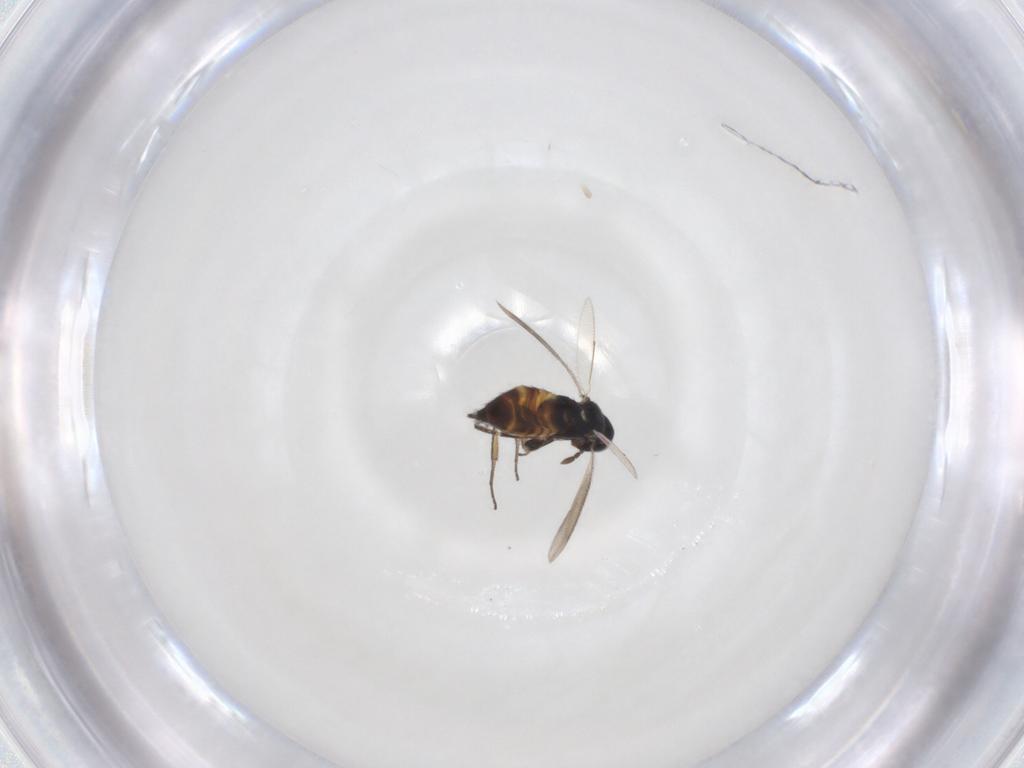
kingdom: Animalia
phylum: Arthropoda
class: Insecta
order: Hymenoptera
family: Eulophidae
